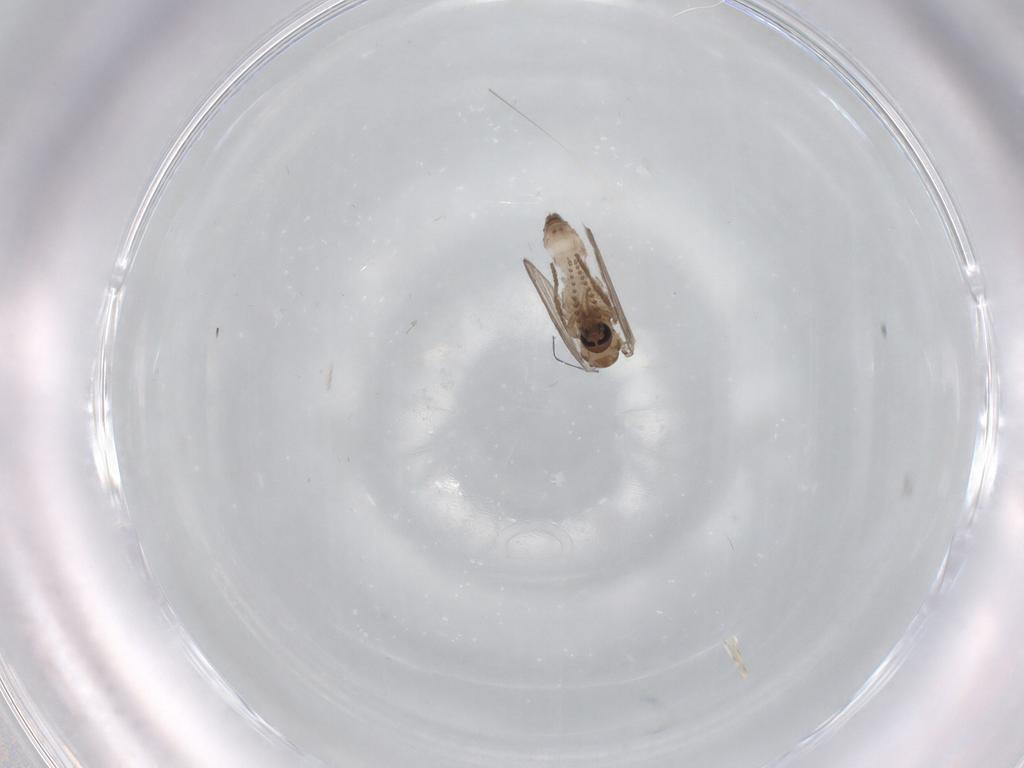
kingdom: Animalia
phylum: Arthropoda
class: Insecta
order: Diptera
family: Psychodidae
